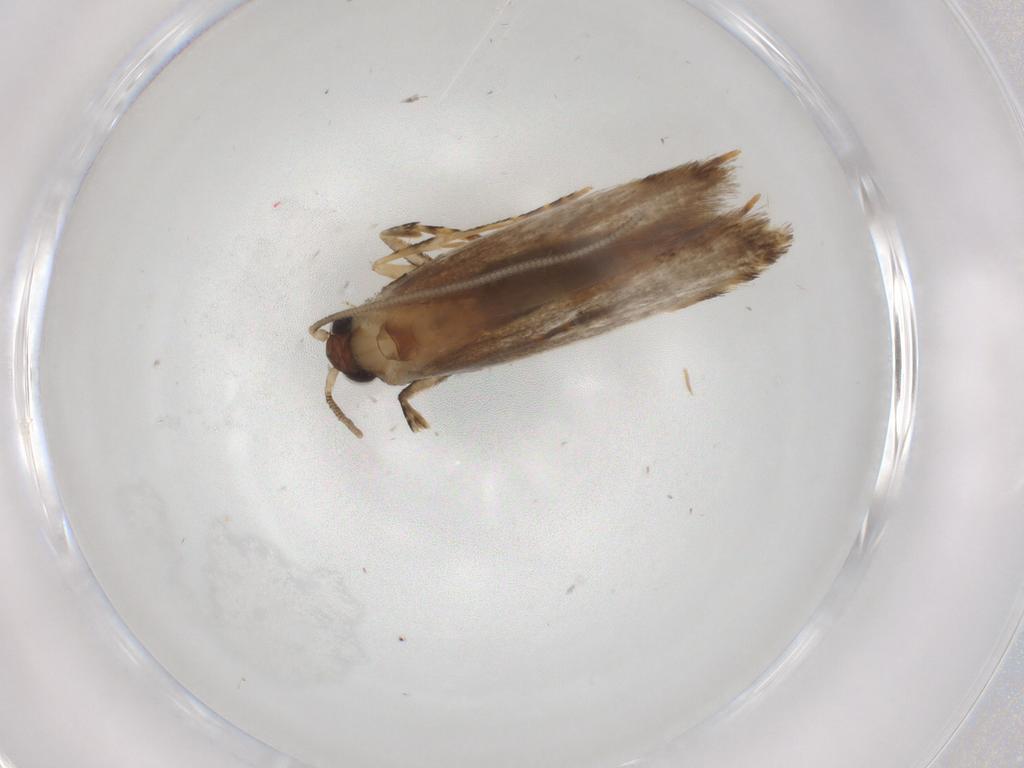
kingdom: Animalia
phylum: Arthropoda
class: Insecta
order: Lepidoptera
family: Tineidae
